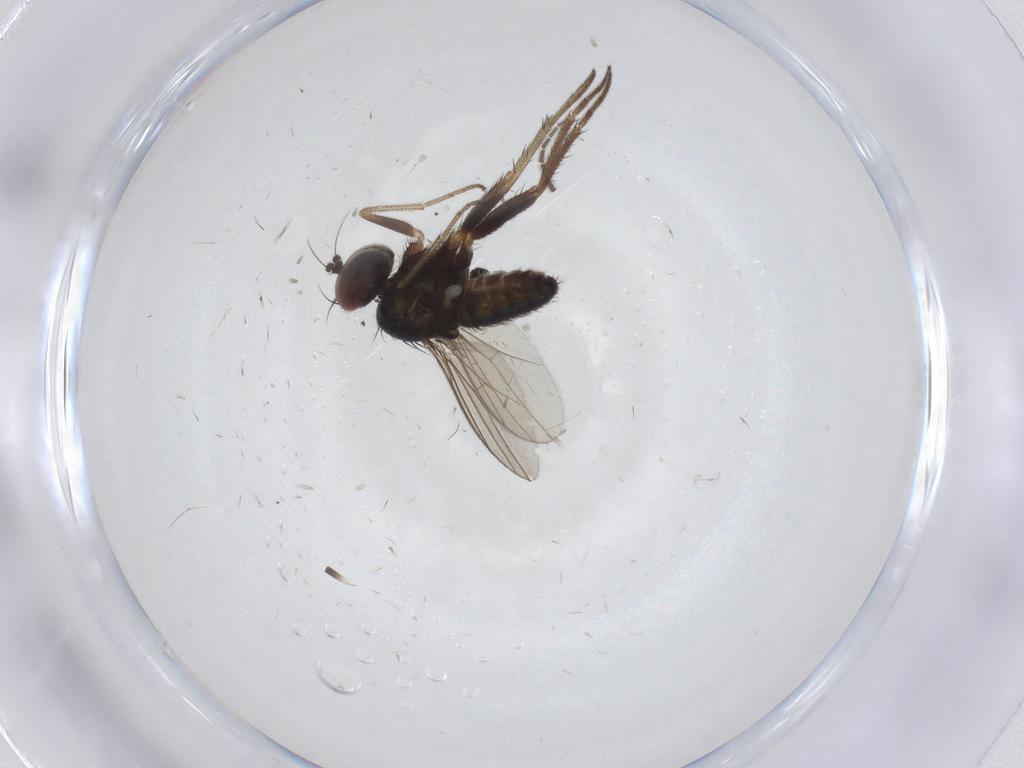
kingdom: Animalia
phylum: Arthropoda
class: Insecta
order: Diptera
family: Dolichopodidae
